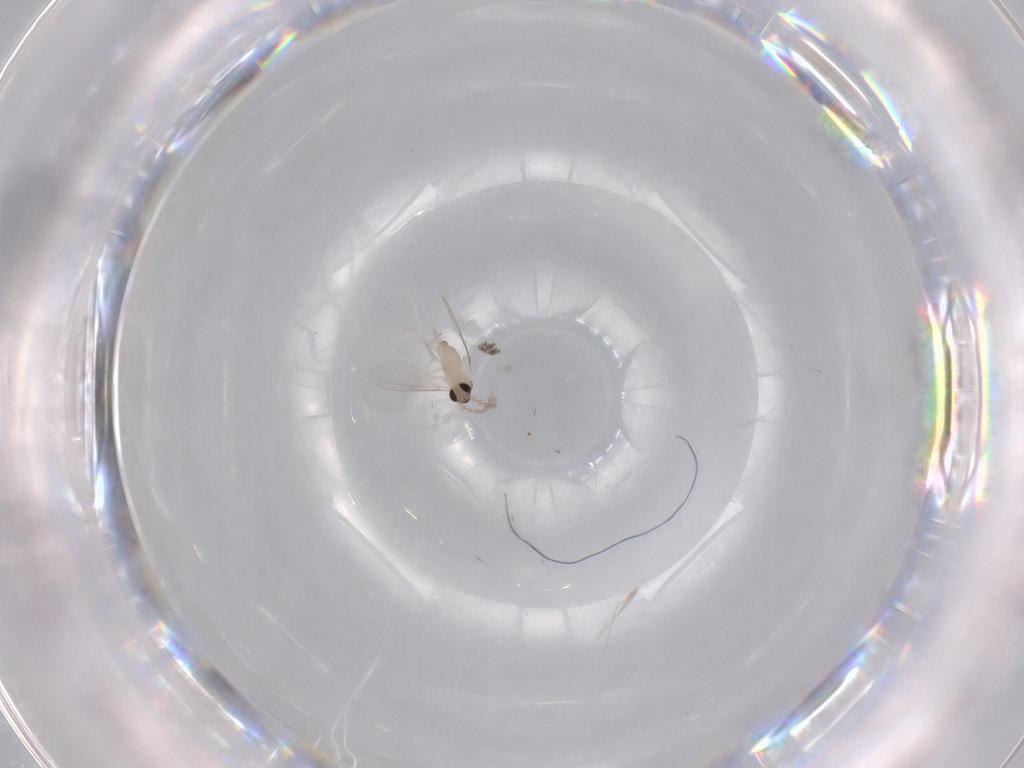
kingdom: Animalia
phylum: Arthropoda
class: Insecta
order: Diptera
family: Cecidomyiidae
